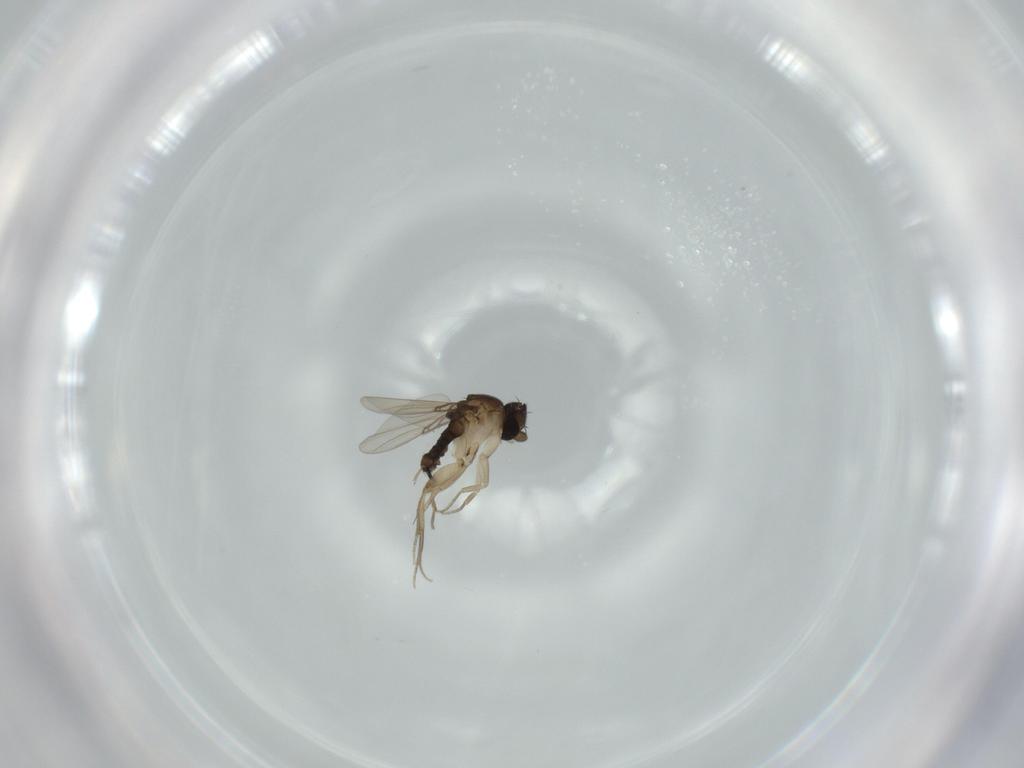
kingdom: Animalia
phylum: Arthropoda
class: Insecta
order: Diptera
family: Phoridae
